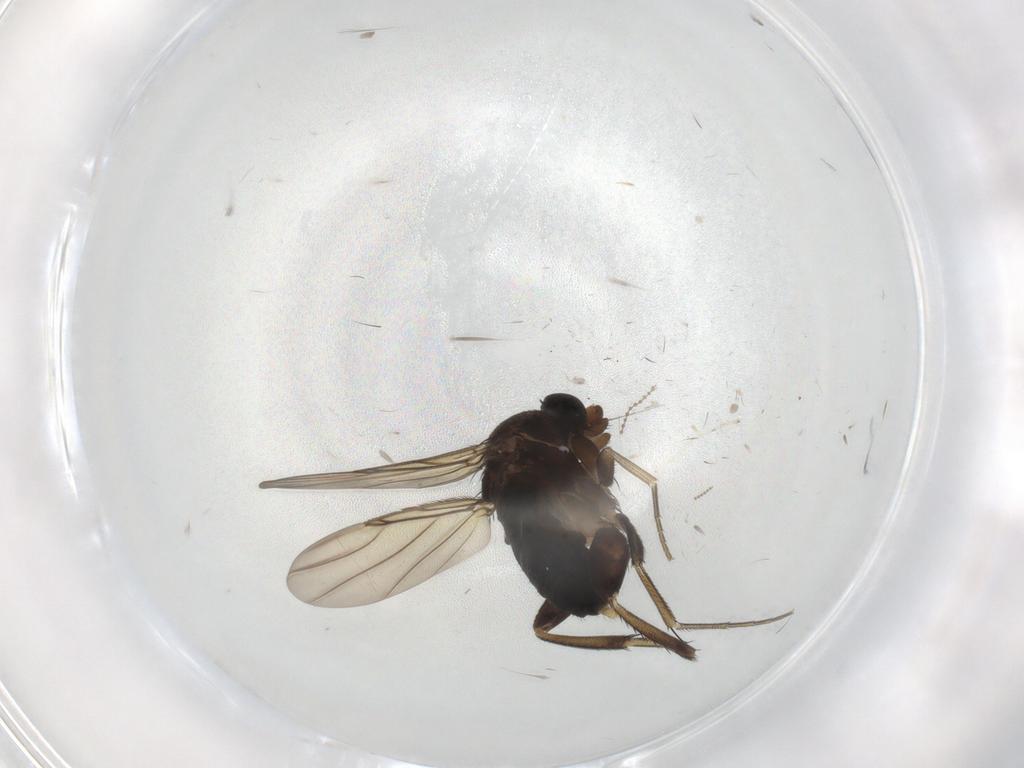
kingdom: Animalia
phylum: Arthropoda
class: Insecta
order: Diptera
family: Phoridae
